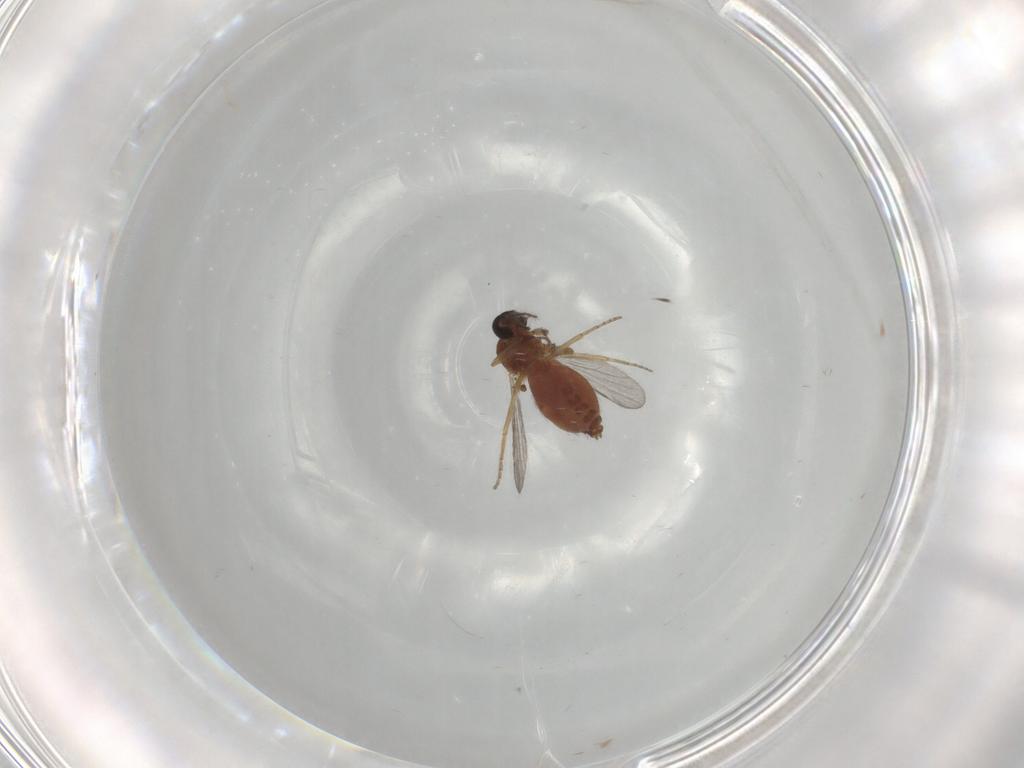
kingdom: Animalia
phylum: Arthropoda
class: Insecta
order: Diptera
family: Ceratopogonidae
